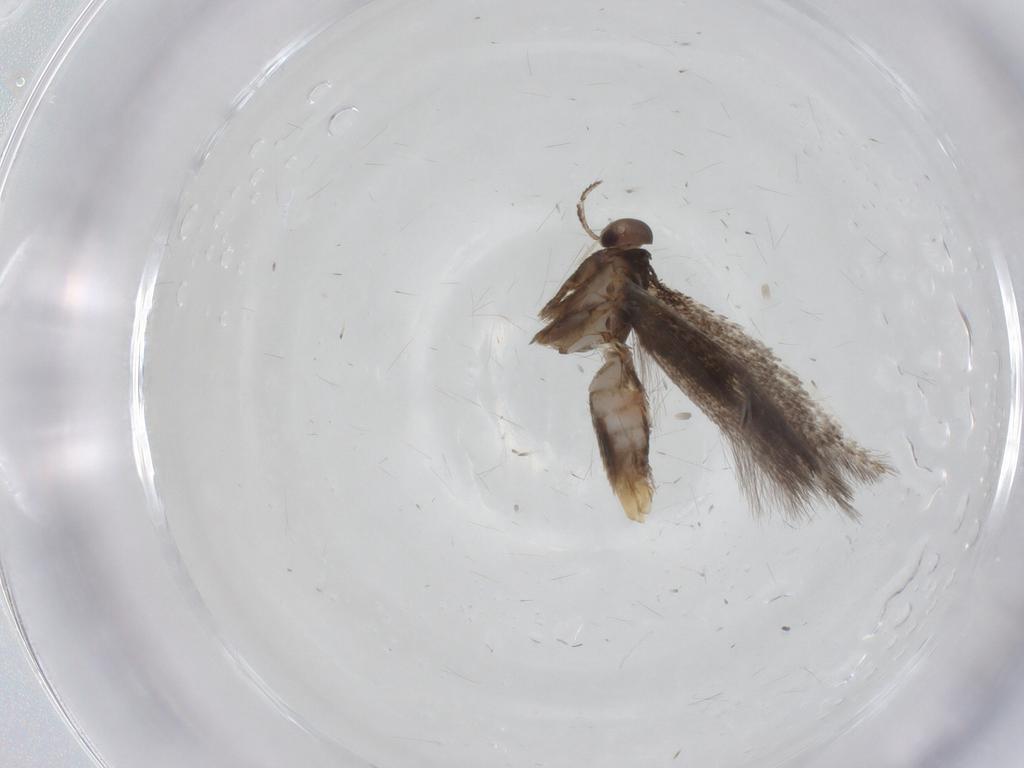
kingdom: Animalia
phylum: Arthropoda
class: Insecta
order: Lepidoptera
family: Elachistidae
